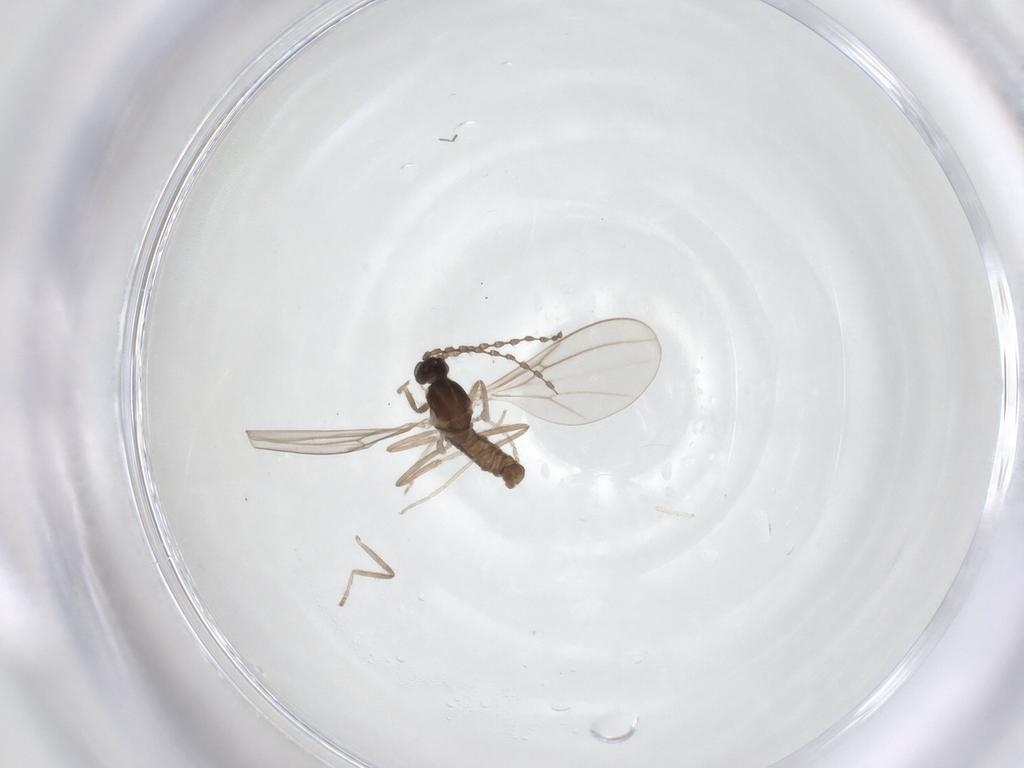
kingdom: Animalia
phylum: Arthropoda
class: Insecta
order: Diptera
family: Cecidomyiidae
